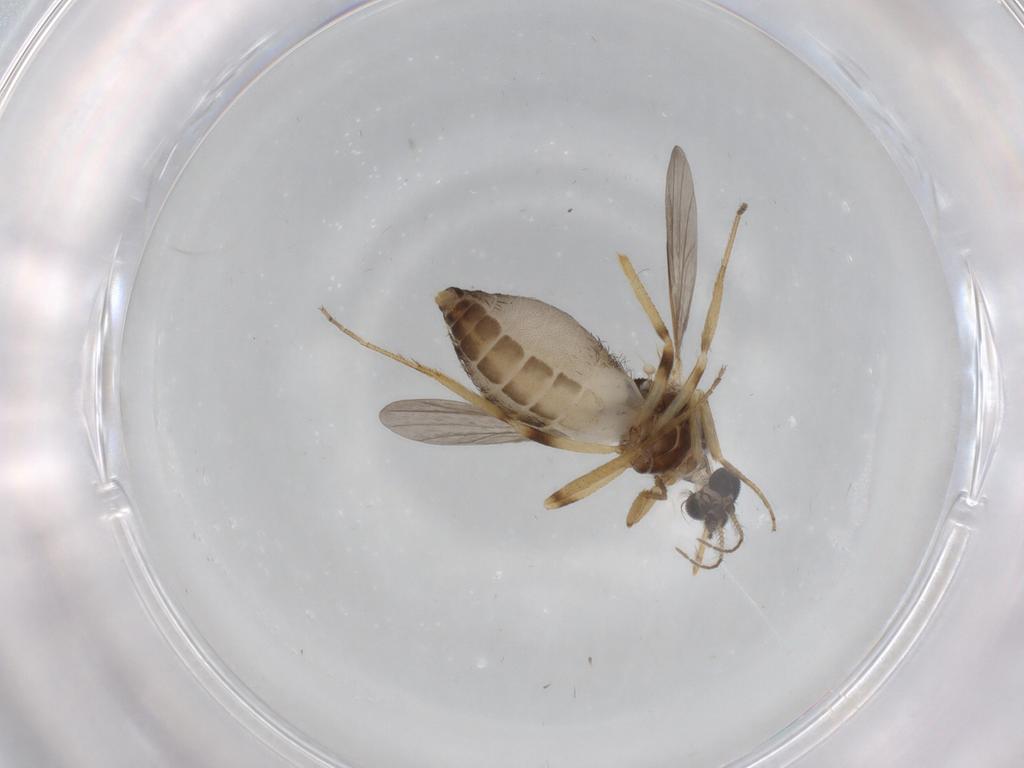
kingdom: Animalia
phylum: Arthropoda
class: Insecta
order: Diptera
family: Ceratopogonidae
